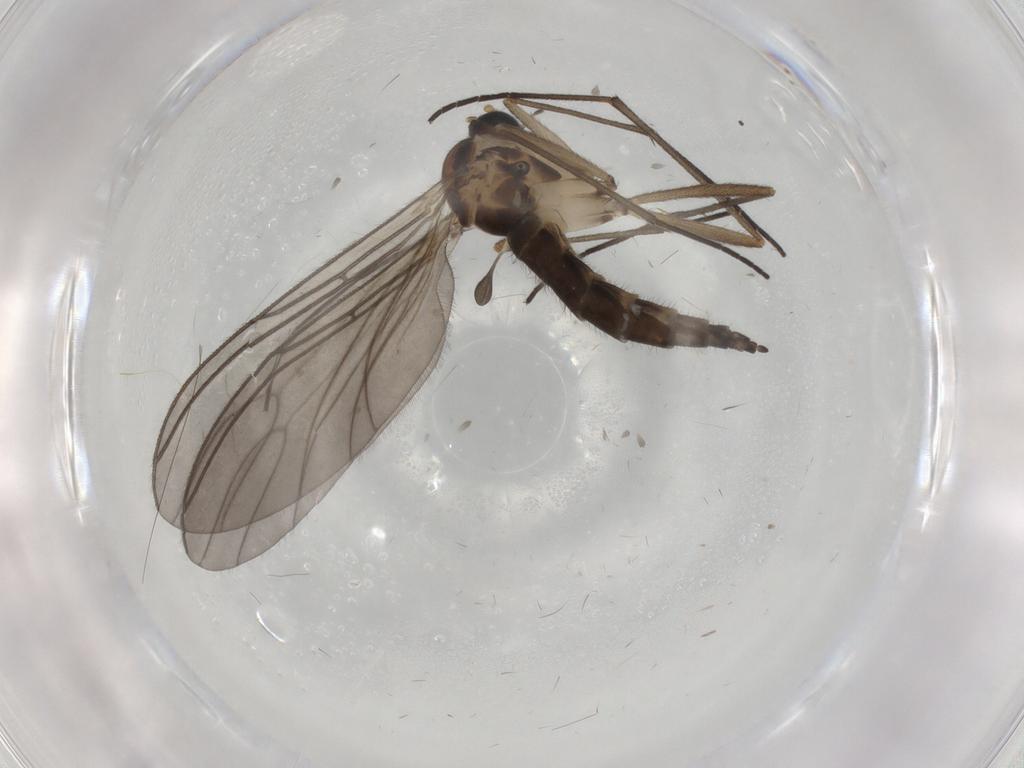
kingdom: Animalia
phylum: Arthropoda
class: Insecta
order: Diptera
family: Sciaridae
